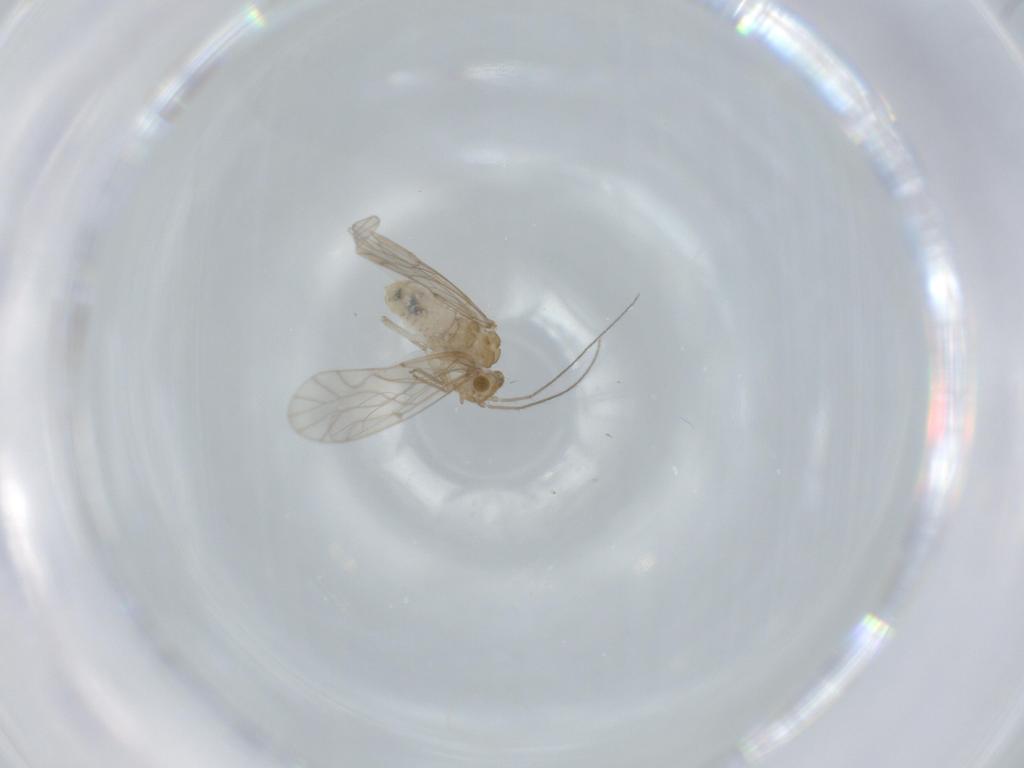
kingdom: Animalia
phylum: Arthropoda
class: Insecta
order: Psocodea
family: Lachesillidae
